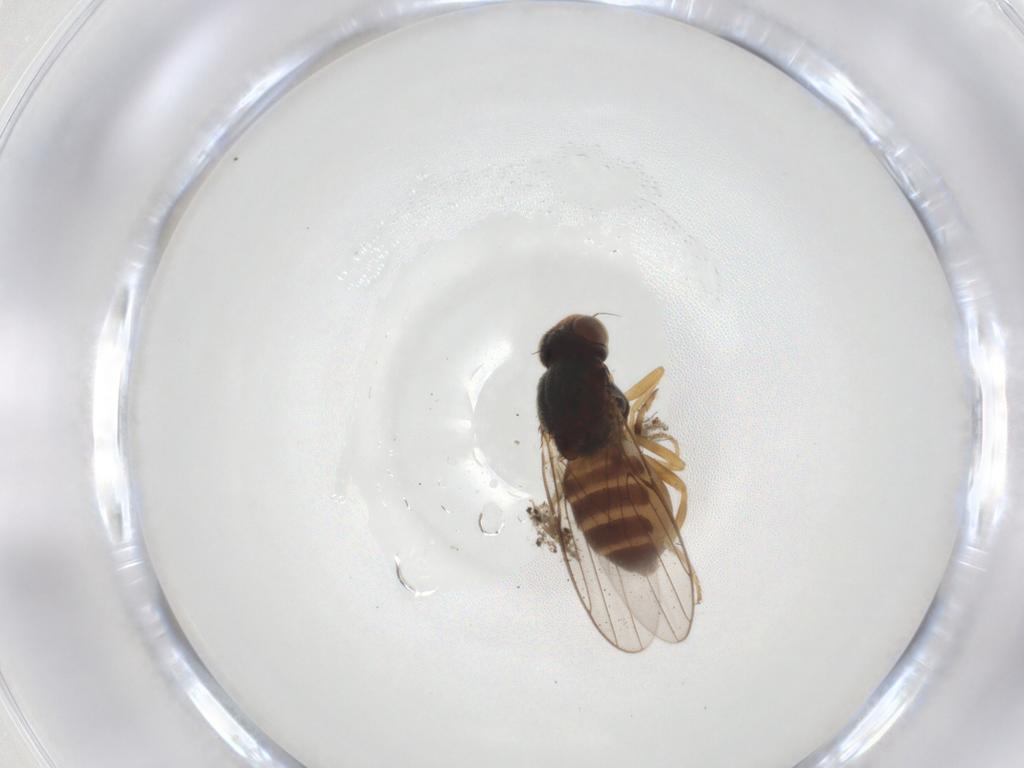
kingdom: Animalia
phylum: Arthropoda
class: Insecta
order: Diptera
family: Chloropidae
